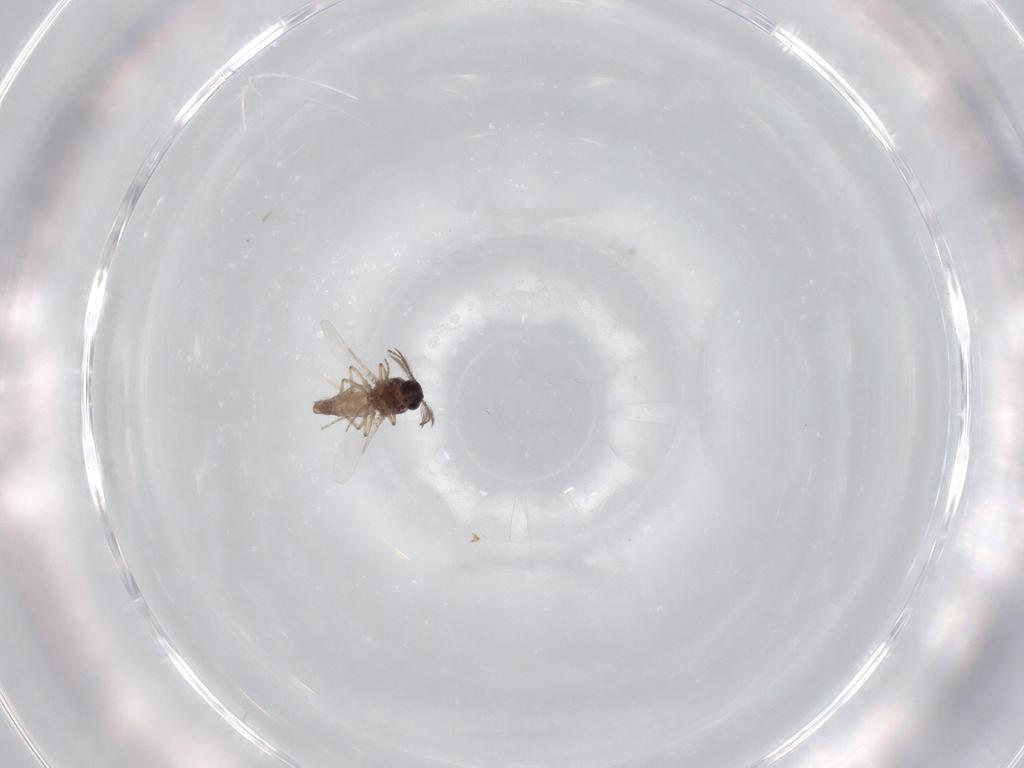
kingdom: Animalia
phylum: Arthropoda
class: Insecta
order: Diptera
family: Ceratopogonidae
